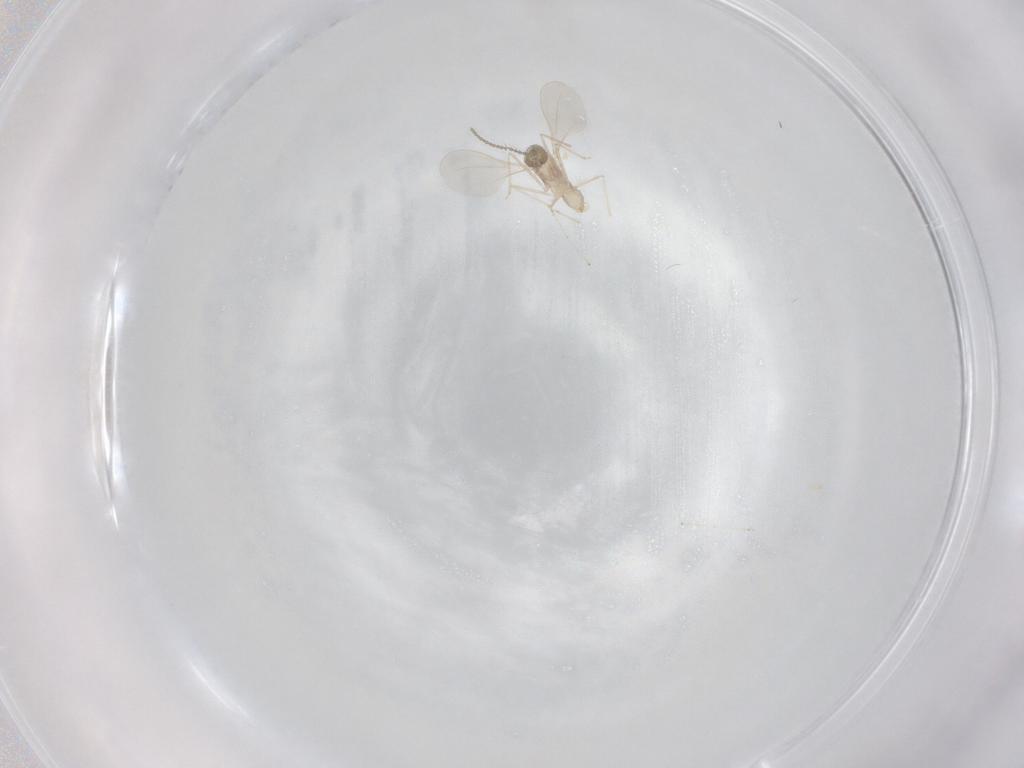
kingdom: Animalia
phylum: Arthropoda
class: Insecta
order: Diptera
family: Cecidomyiidae
